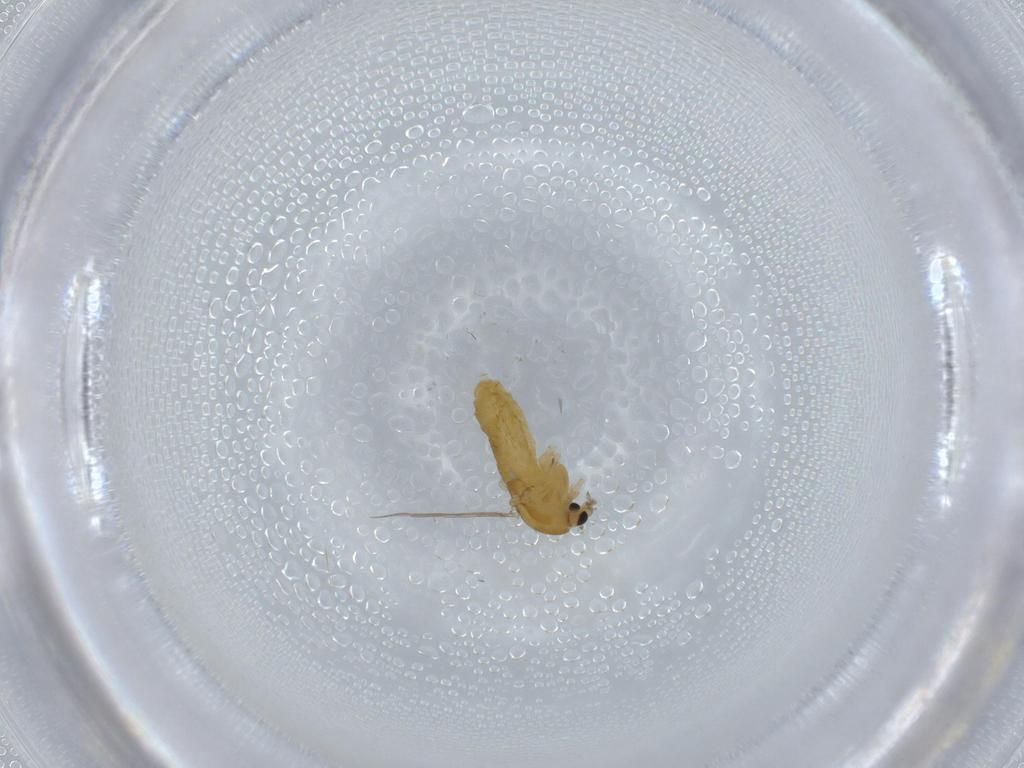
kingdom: Animalia
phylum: Arthropoda
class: Insecta
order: Diptera
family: Chironomidae
